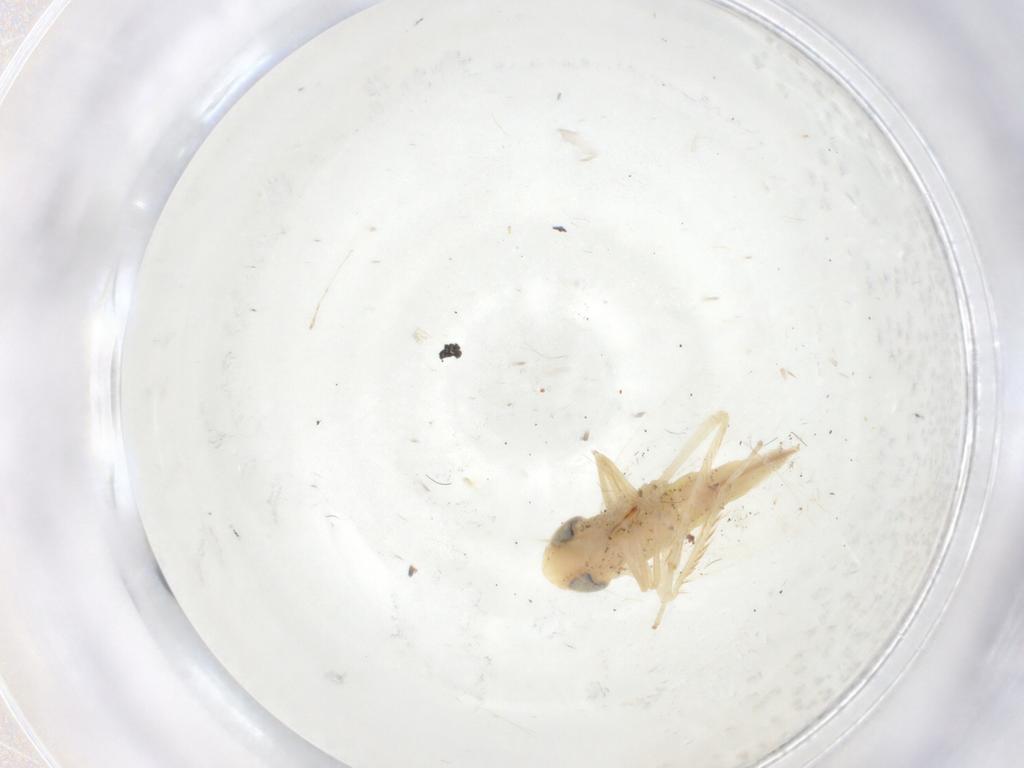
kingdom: Animalia
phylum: Arthropoda
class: Insecta
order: Hemiptera
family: Cicadellidae
